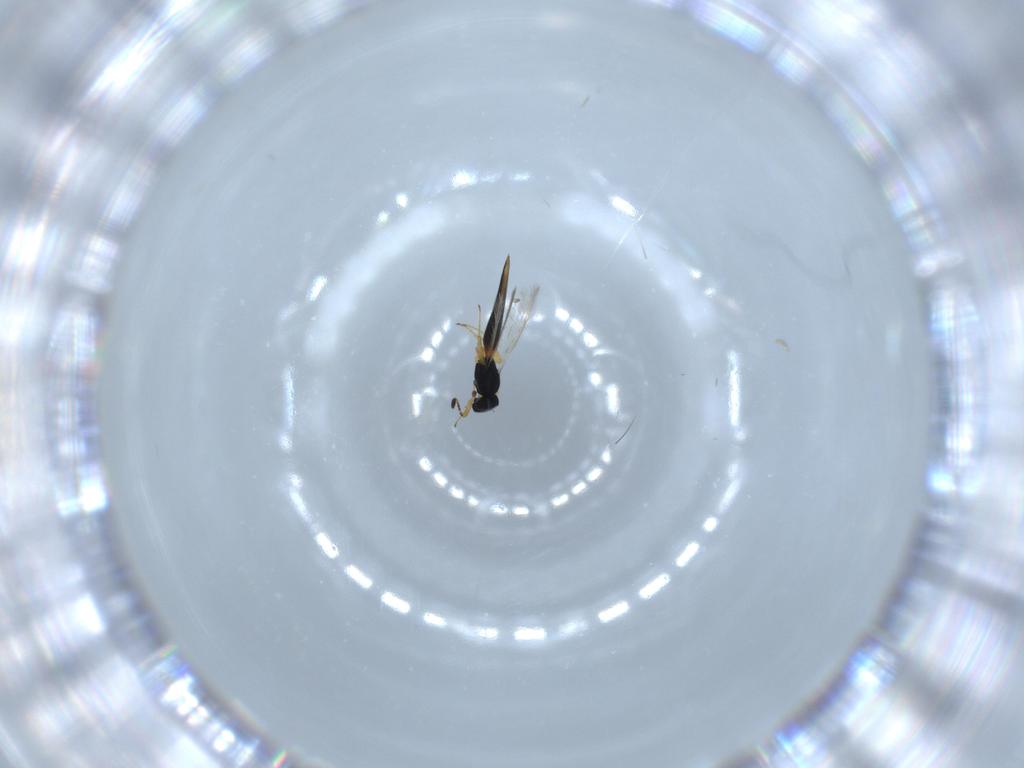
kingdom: Animalia
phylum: Arthropoda
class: Insecta
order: Hymenoptera
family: Scelionidae
